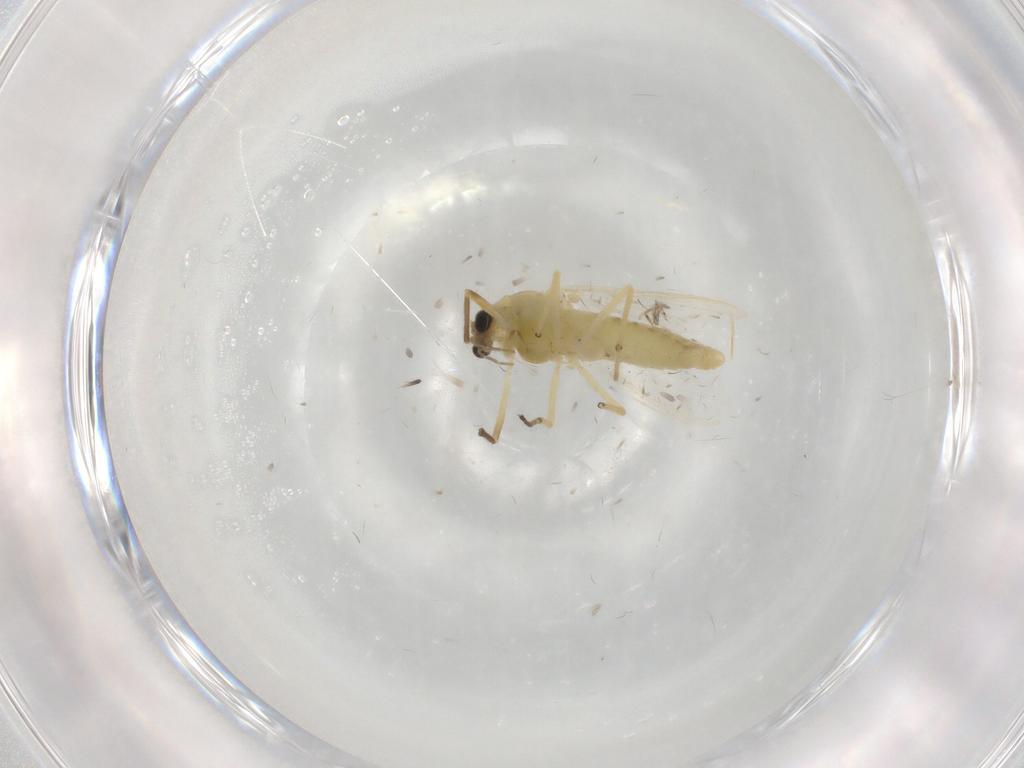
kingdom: Animalia
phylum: Arthropoda
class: Insecta
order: Diptera
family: Chironomidae
